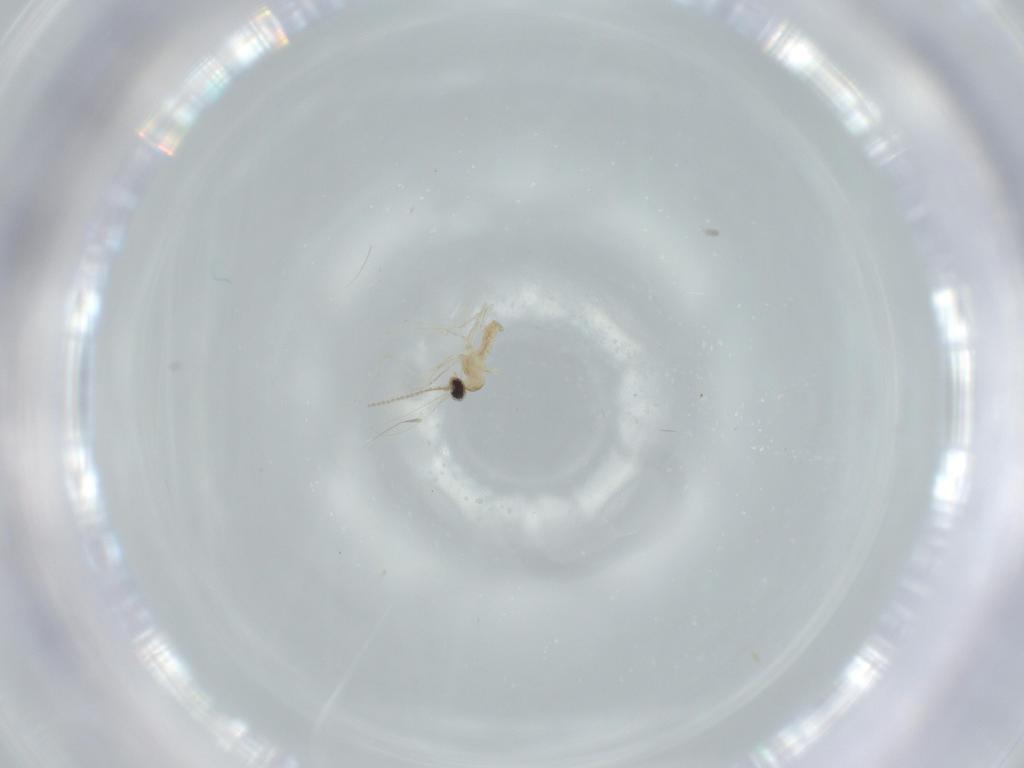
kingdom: Animalia
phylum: Arthropoda
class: Insecta
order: Diptera
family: Cecidomyiidae
